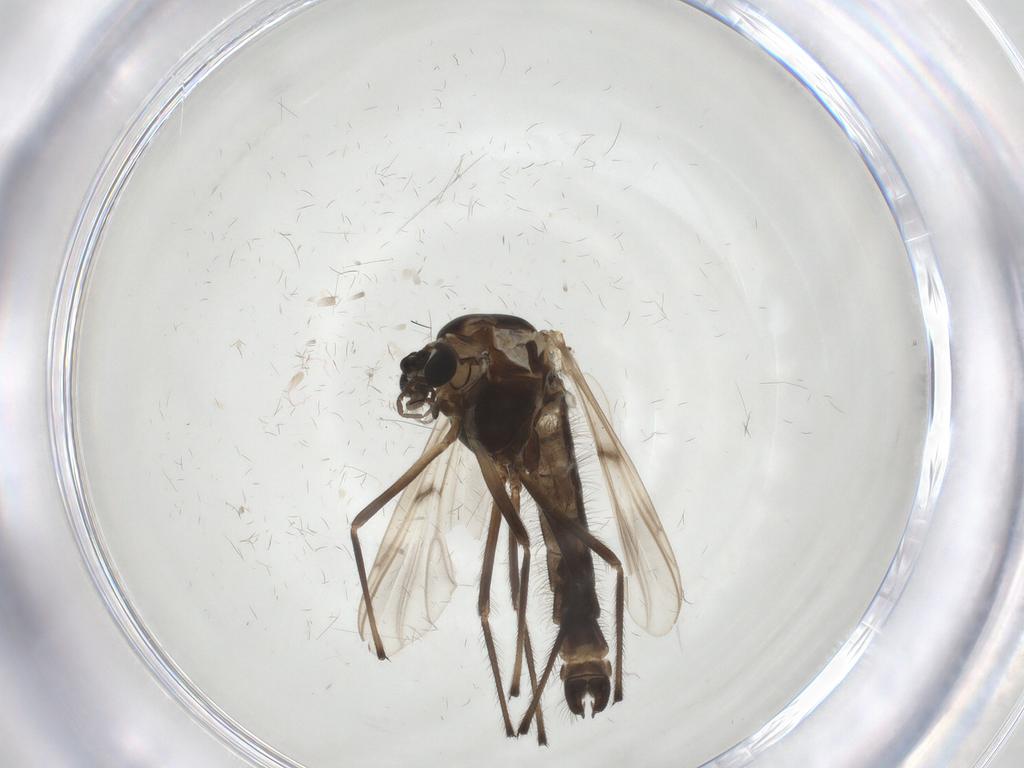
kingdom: Animalia
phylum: Arthropoda
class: Insecta
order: Diptera
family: Chironomidae
